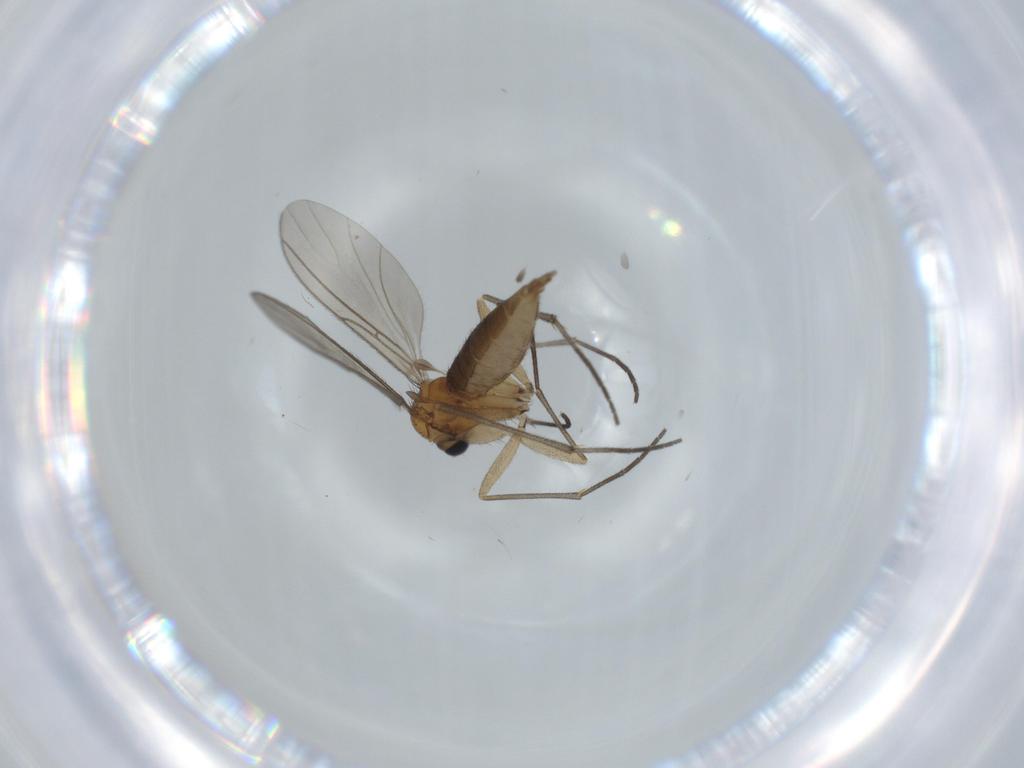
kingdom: Animalia
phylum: Arthropoda
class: Insecta
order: Diptera
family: Sciaridae
